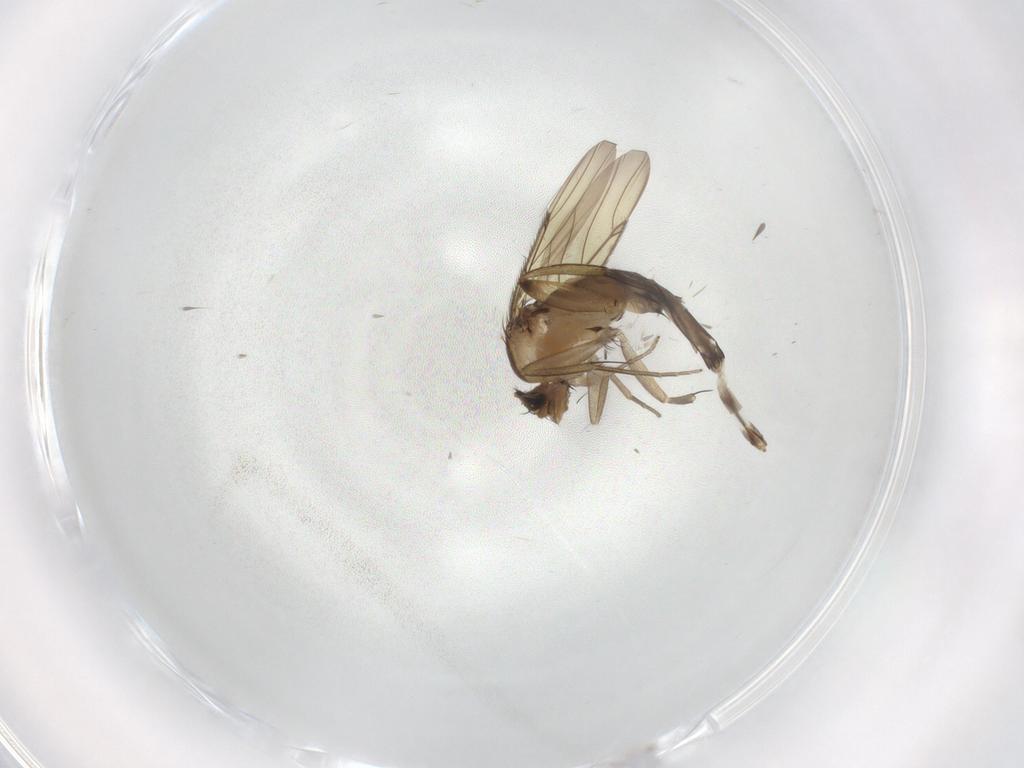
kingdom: Animalia
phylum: Arthropoda
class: Insecta
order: Diptera
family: Phoridae
